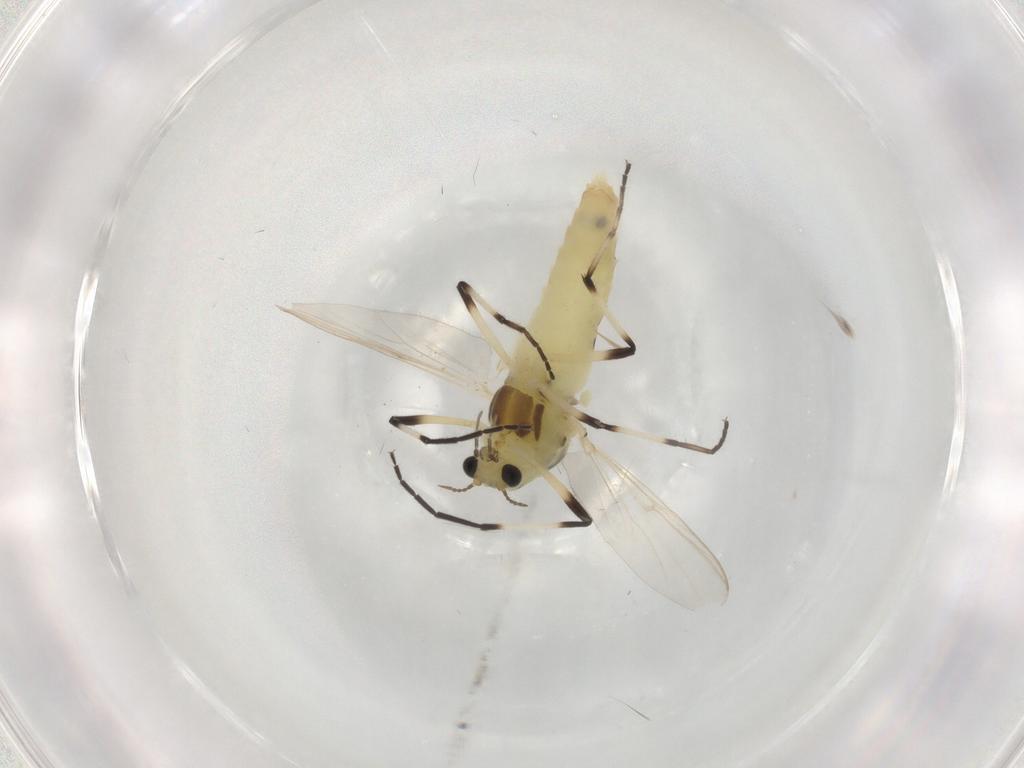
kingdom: Animalia
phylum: Arthropoda
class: Insecta
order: Diptera
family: Chironomidae
